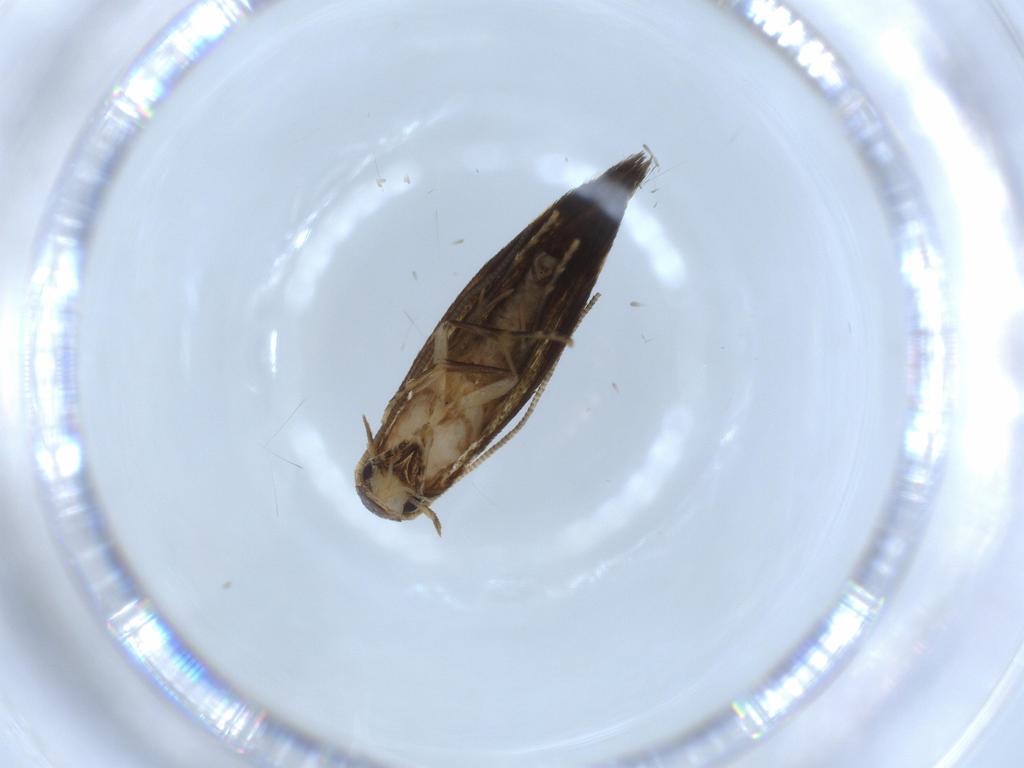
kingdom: Animalia
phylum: Arthropoda
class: Insecta
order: Lepidoptera
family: Tineidae
